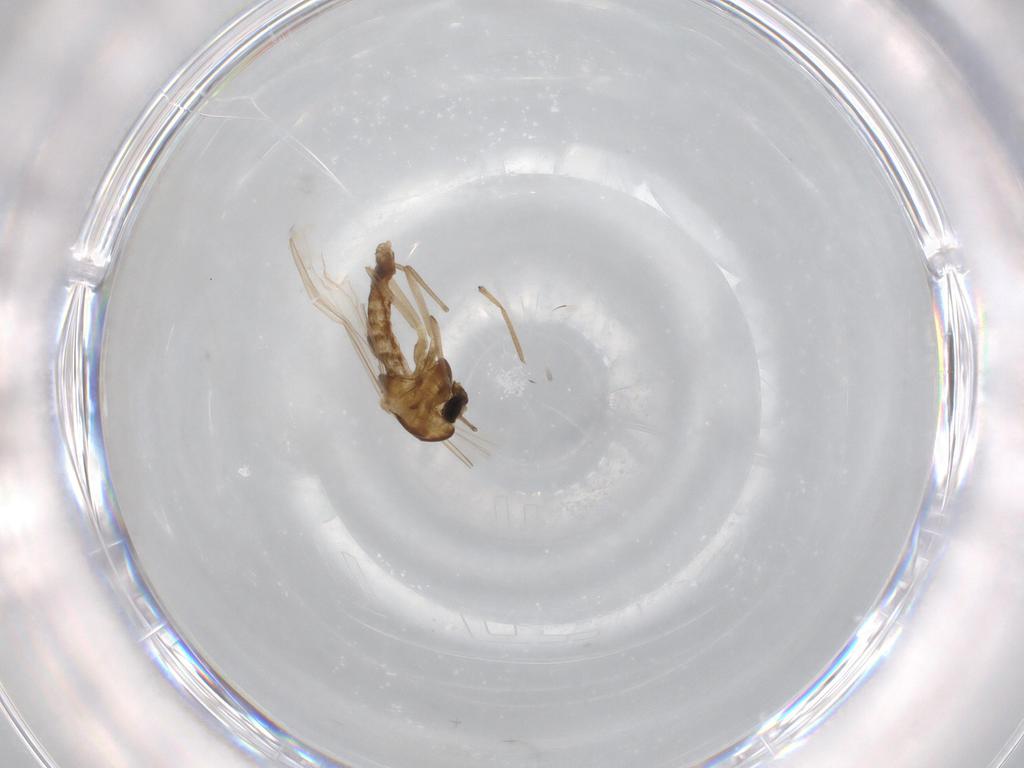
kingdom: Animalia
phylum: Arthropoda
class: Insecta
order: Diptera
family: Chironomidae
